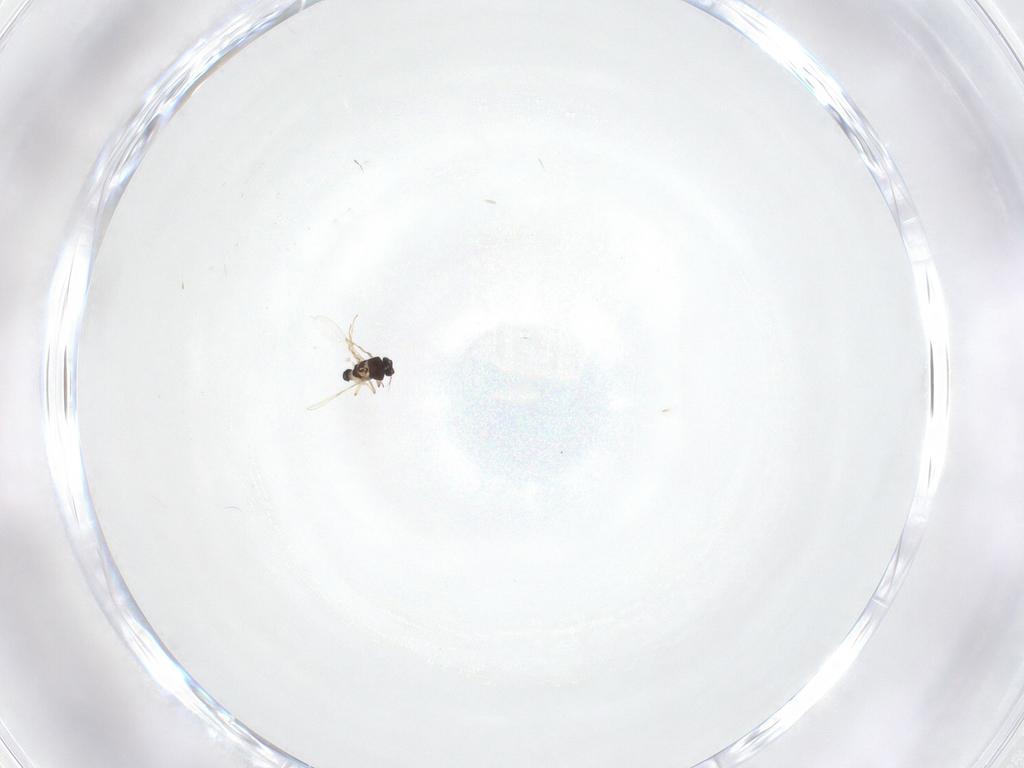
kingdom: Animalia
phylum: Arthropoda
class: Insecta
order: Diptera
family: Ceratopogonidae
